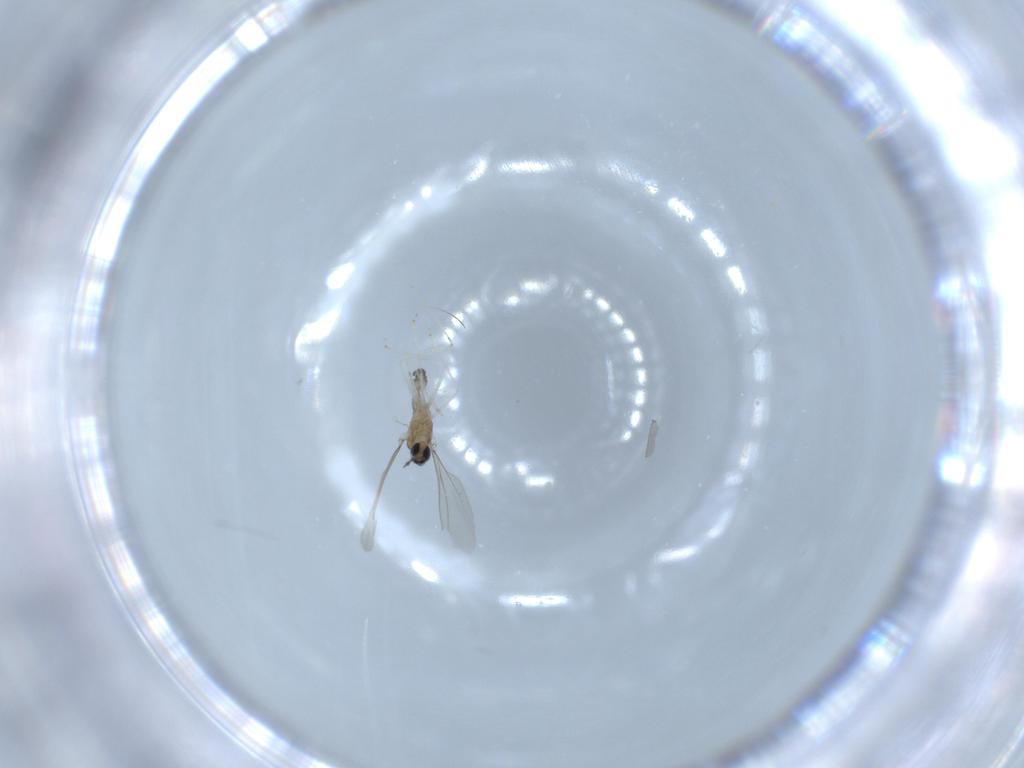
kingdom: Animalia
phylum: Arthropoda
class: Insecta
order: Diptera
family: Cecidomyiidae
